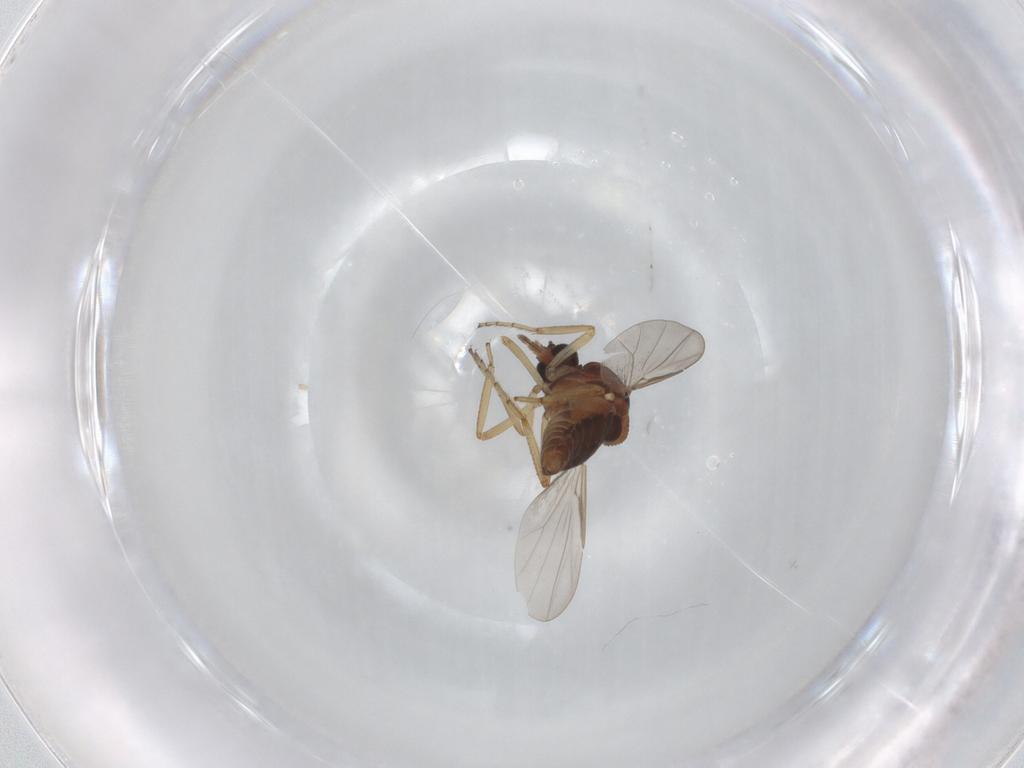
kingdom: Animalia
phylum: Arthropoda
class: Insecta
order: Diptera
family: Ceratopogonidae
